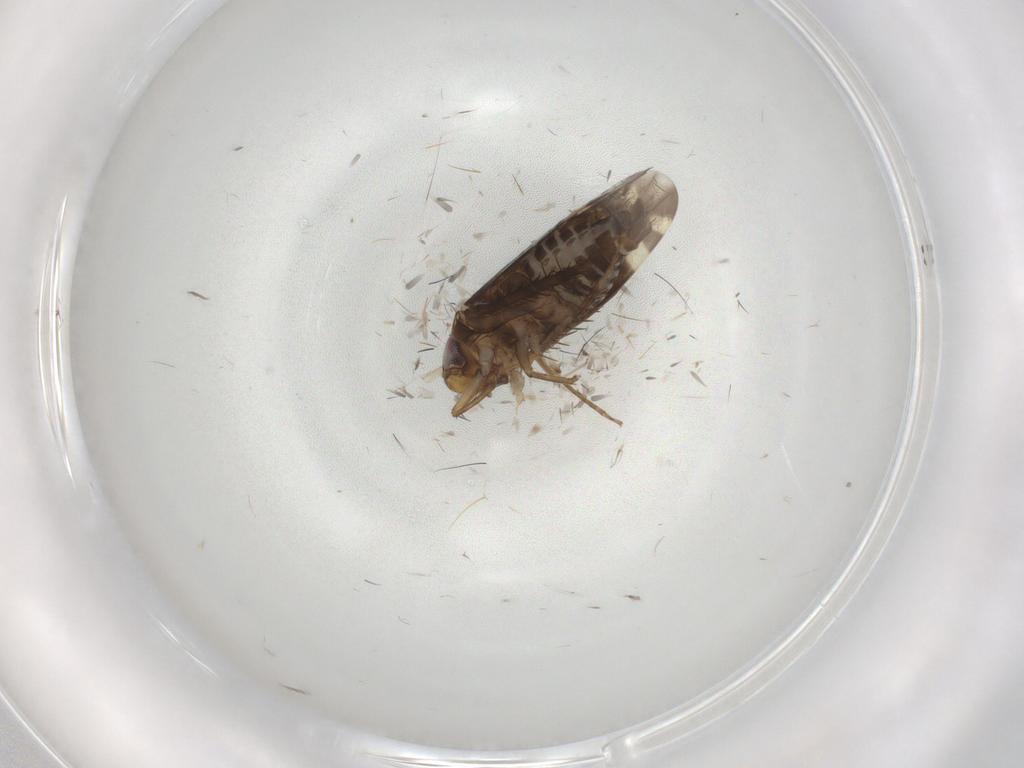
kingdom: Animalia
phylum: Arthropoda
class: Insecta
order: Hemiptera
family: Cicadellidae
